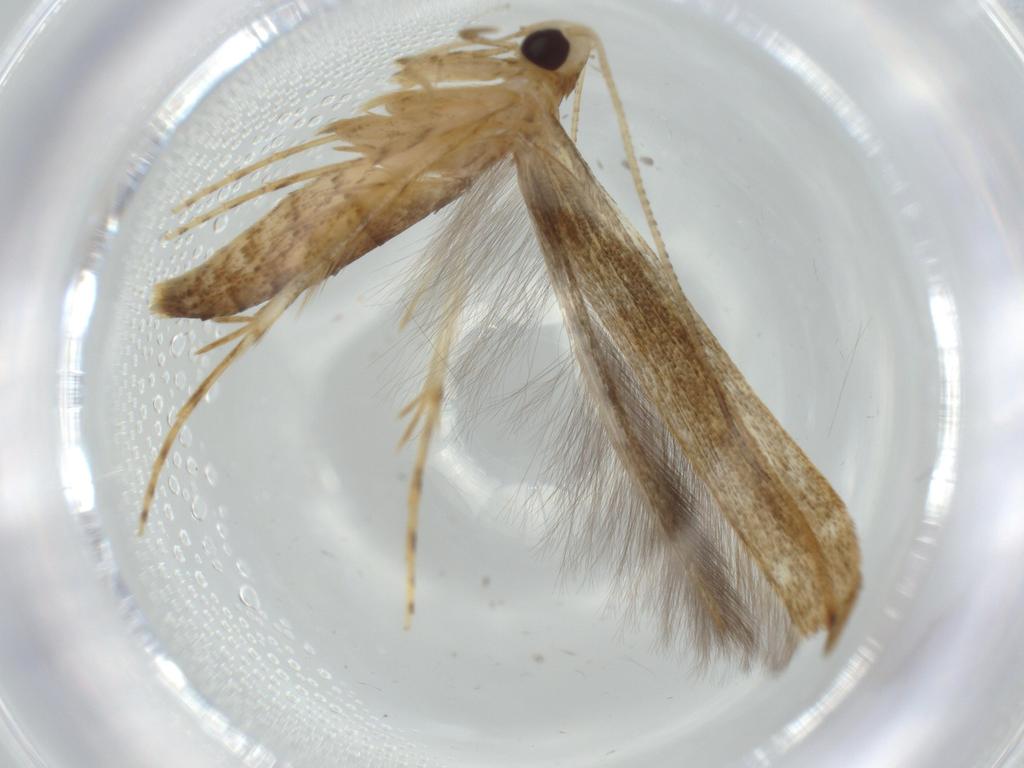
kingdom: Animalia
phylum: Arthropoda
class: Insecta
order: Lepidoptera
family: Batrachedridae
